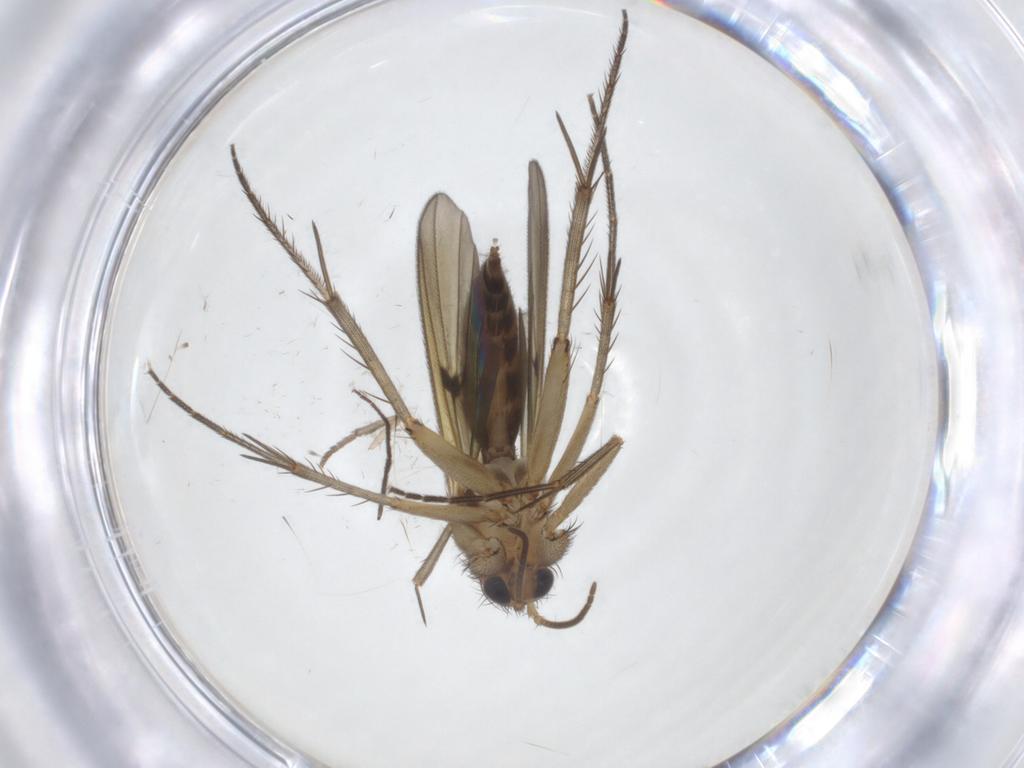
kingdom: Animalia
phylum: Arthropoda
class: Insecta
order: Diptera
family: Mycetophilidae
